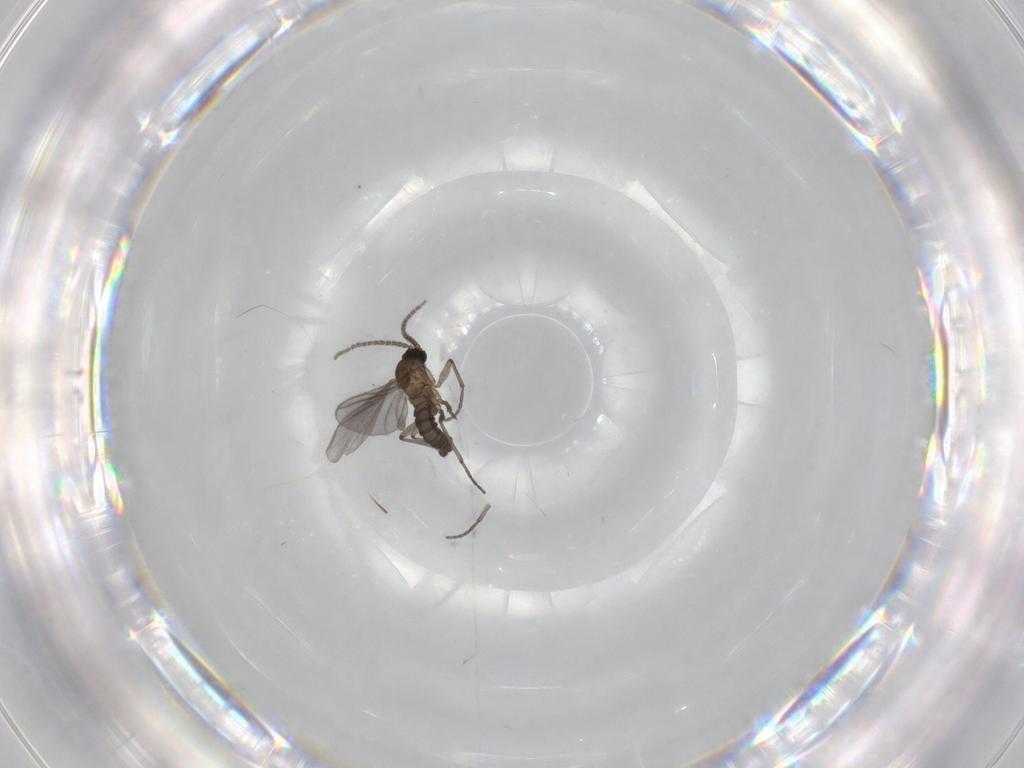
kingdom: Animalia
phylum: Arthropoda
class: Insecta
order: Diptera
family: Sciaridae
